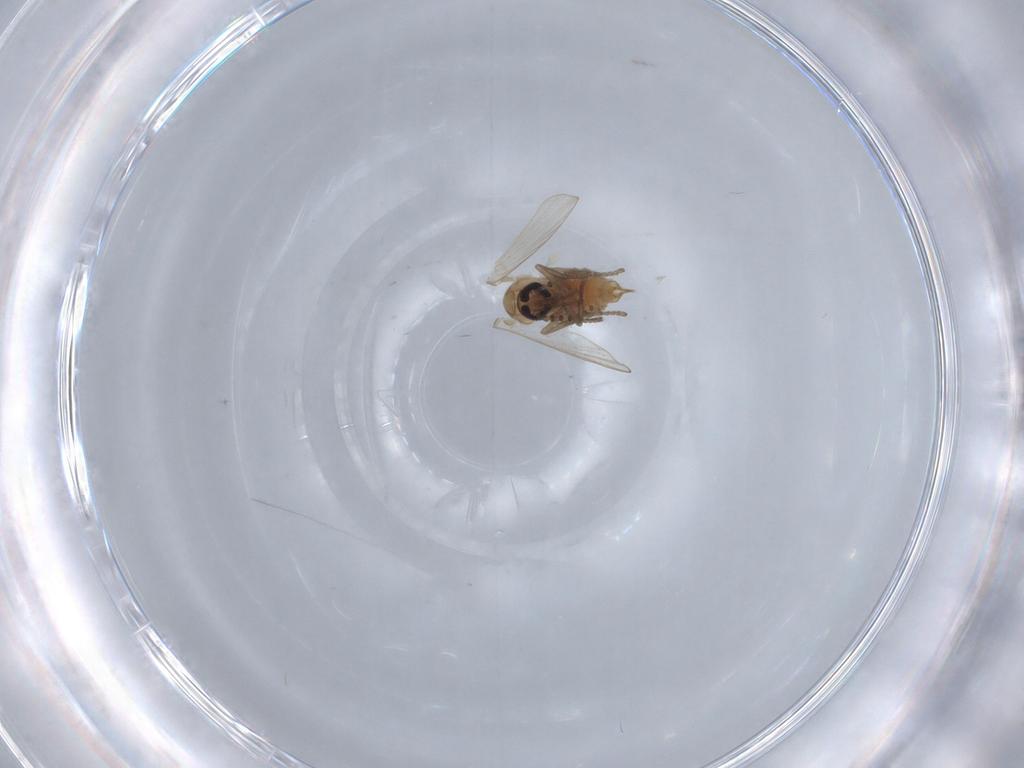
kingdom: Animalia
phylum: Arthropoda
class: Insecta
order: Diptera
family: Psychodidae
